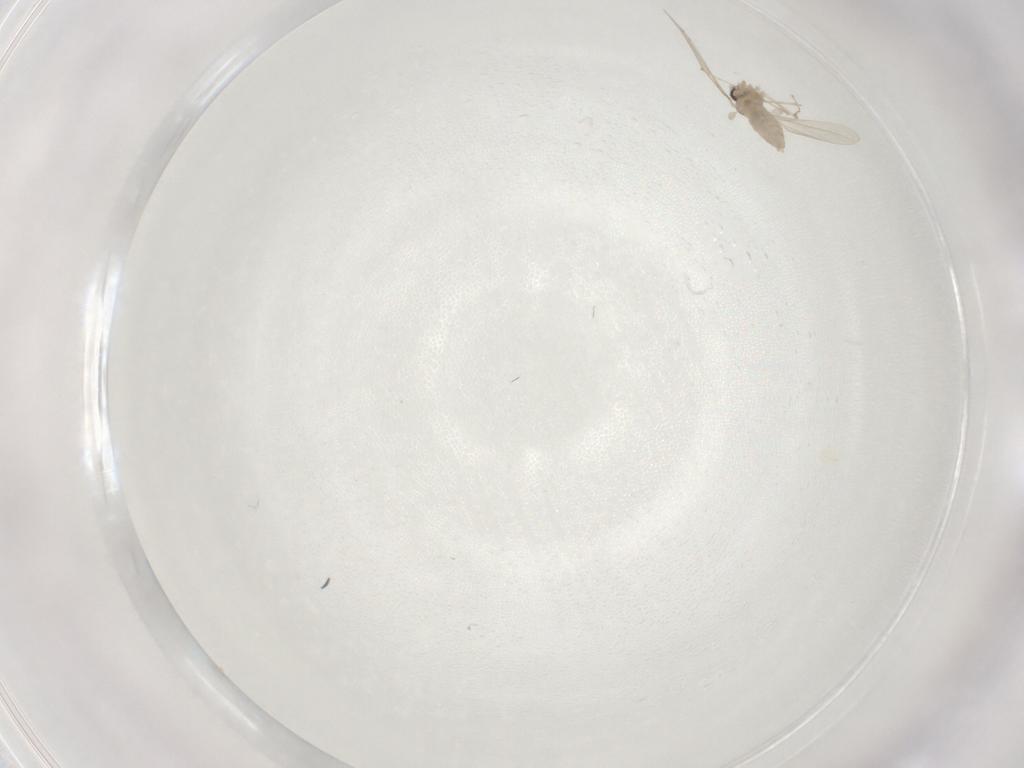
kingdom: Animalia
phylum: Arthropoda
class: Insecta
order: Diptera
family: Cecidomyiidae
